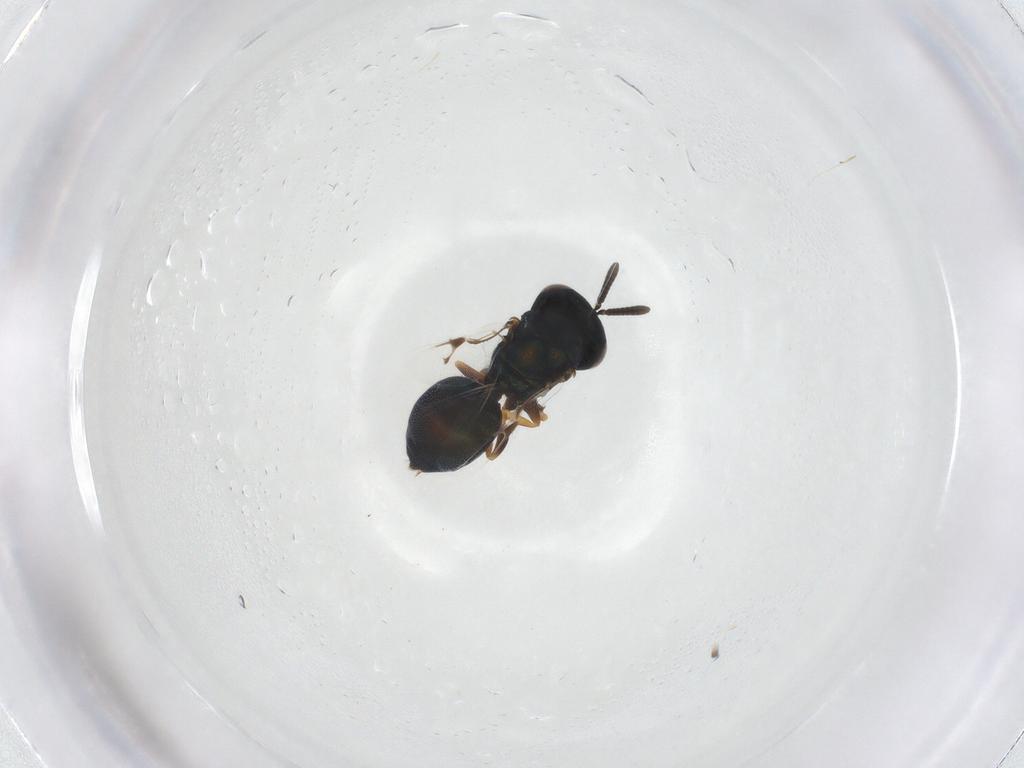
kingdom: Animalia
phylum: Arthropoda
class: Insecta
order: Hymenoptera
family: Pteromalidae
